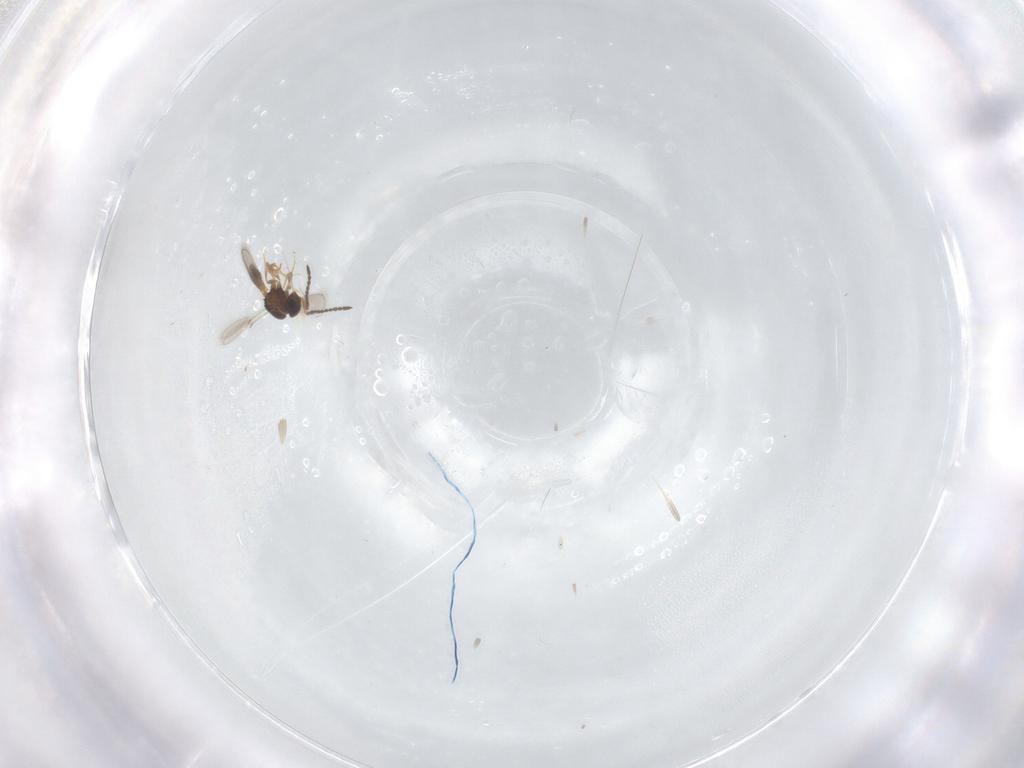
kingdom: Animalia
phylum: Arthropoda
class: Insecta
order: Hymenoptera
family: Scelionidae
